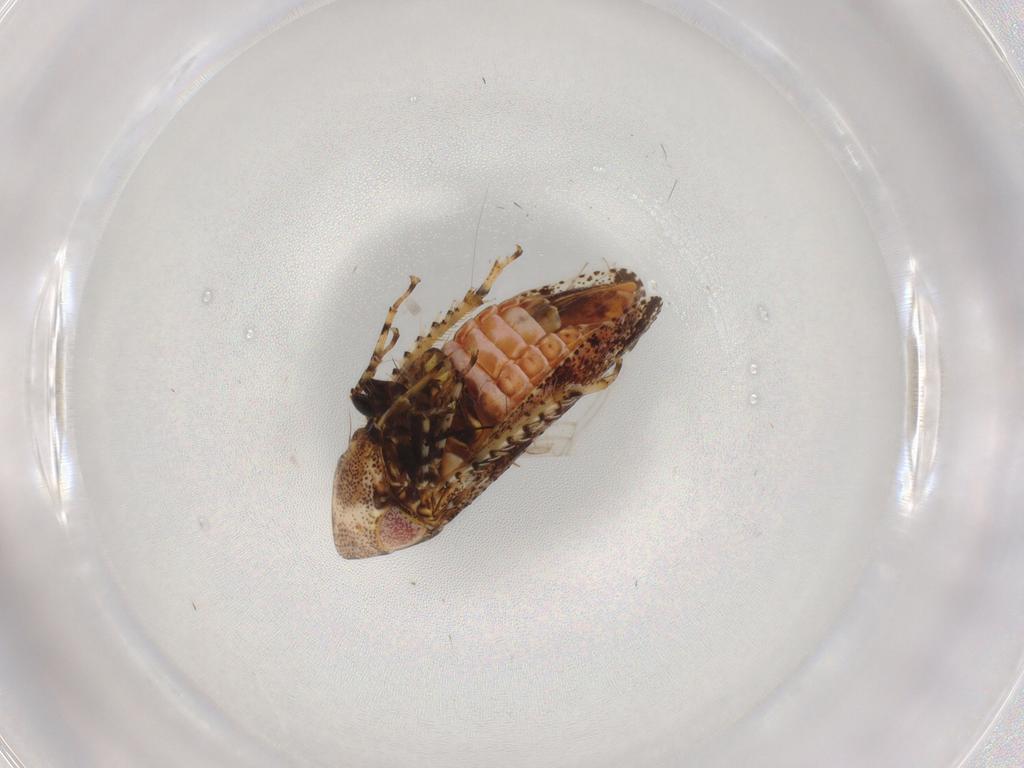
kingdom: Animalia
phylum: Arthropoda
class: Insecta
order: Hemiptera
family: Cicadellidae
